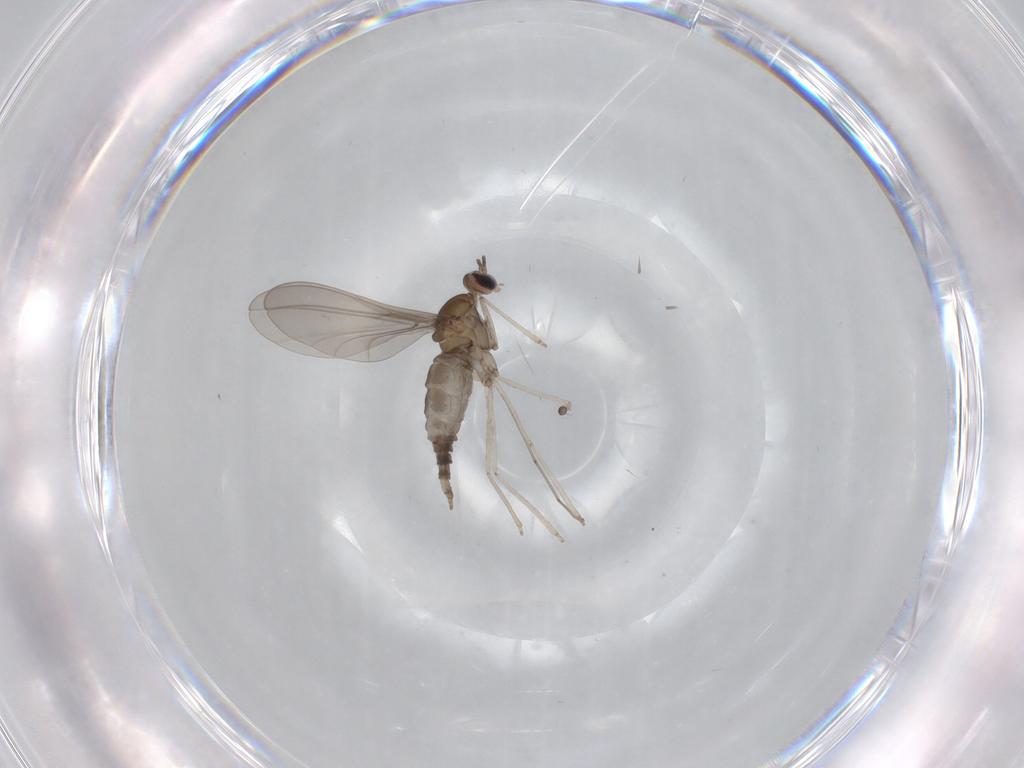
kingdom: Animalia
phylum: Arthropoda
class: Insecta
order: Diptera
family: Cecidomyiidae
